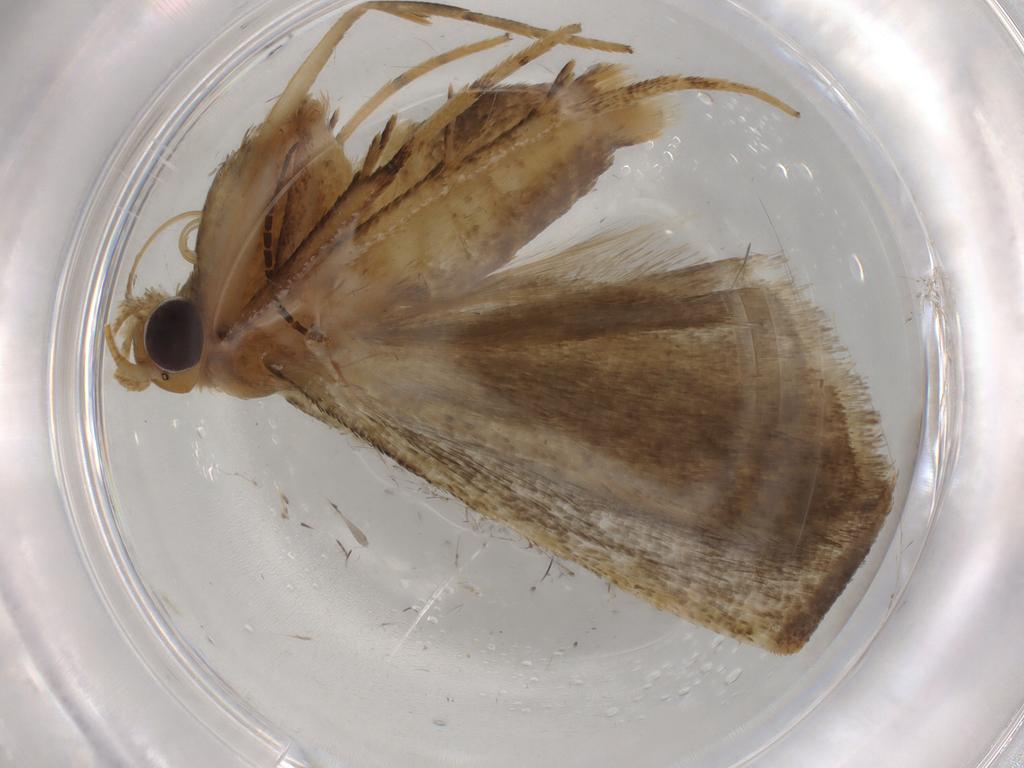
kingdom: Animalia
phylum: Arthropoda
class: Insecta
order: Lepidoptera
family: Gelechiidae
